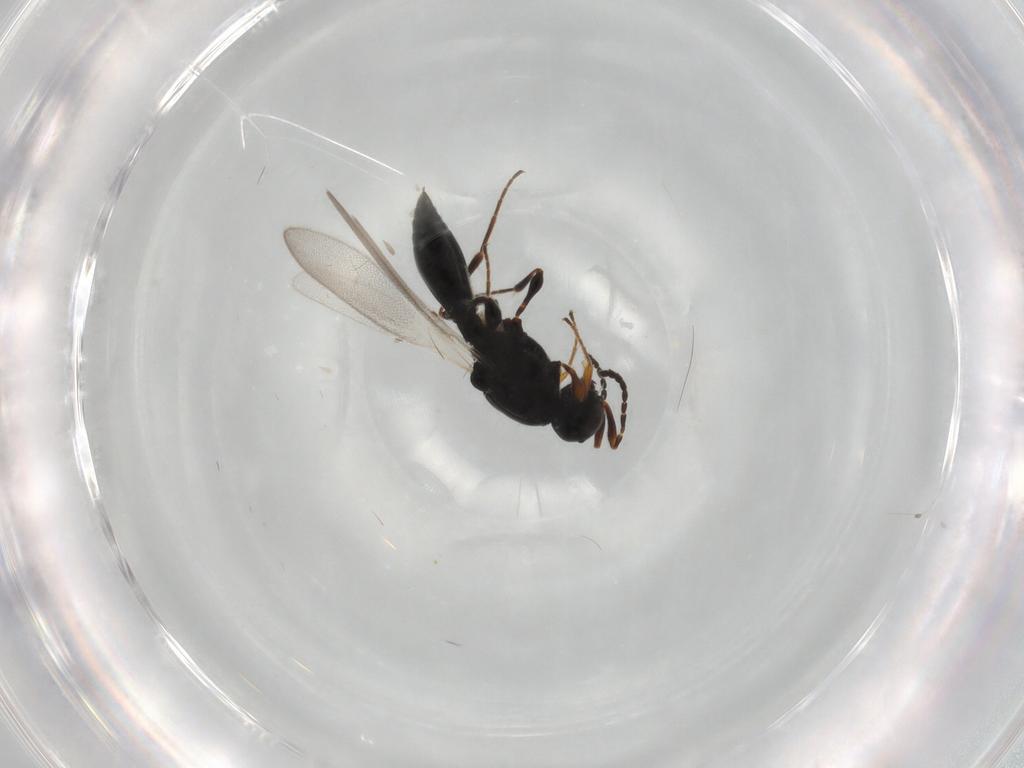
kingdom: Animalia
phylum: Arthropoda
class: Insecta
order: Hymenoptera
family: Platygastridae
